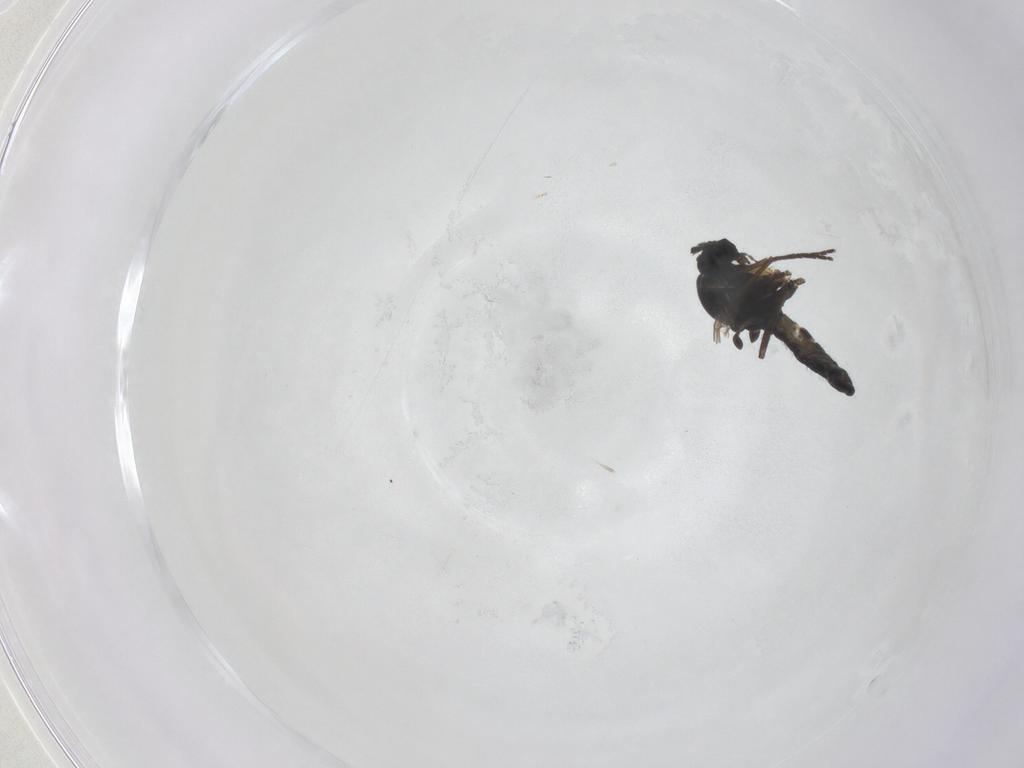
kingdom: Animalia
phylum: Arthropoda
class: Insecta
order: Diptera
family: Sciaridae
